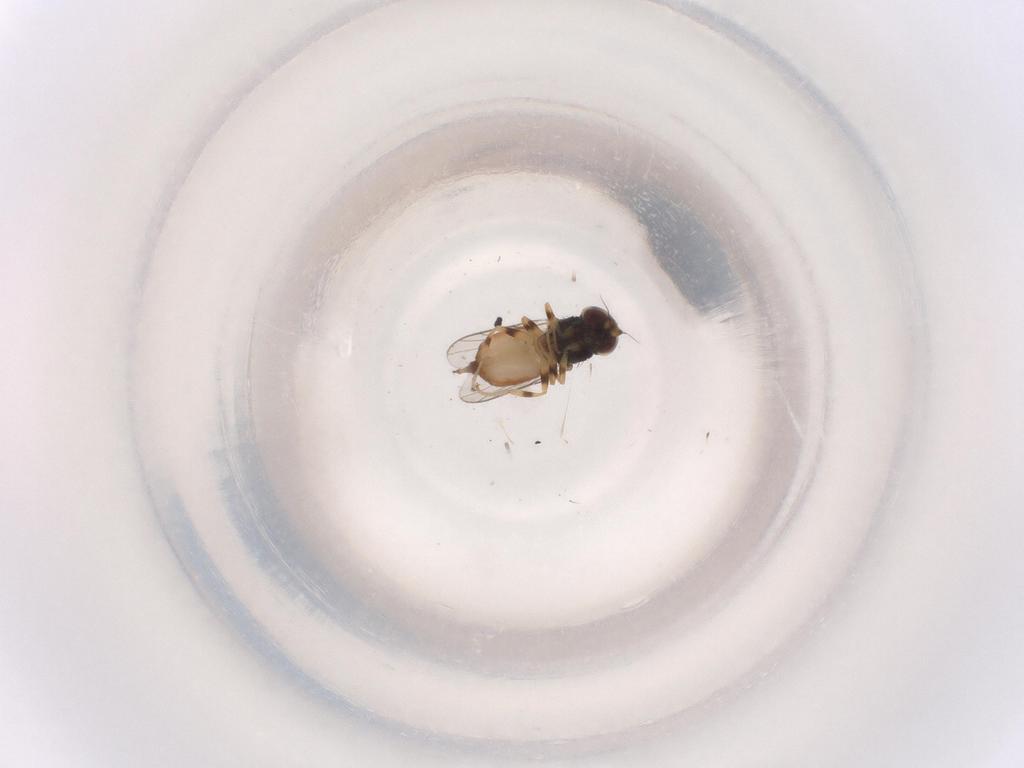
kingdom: Animalia
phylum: Arthropoda
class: Insecta
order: Diptera
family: Chloropidae
